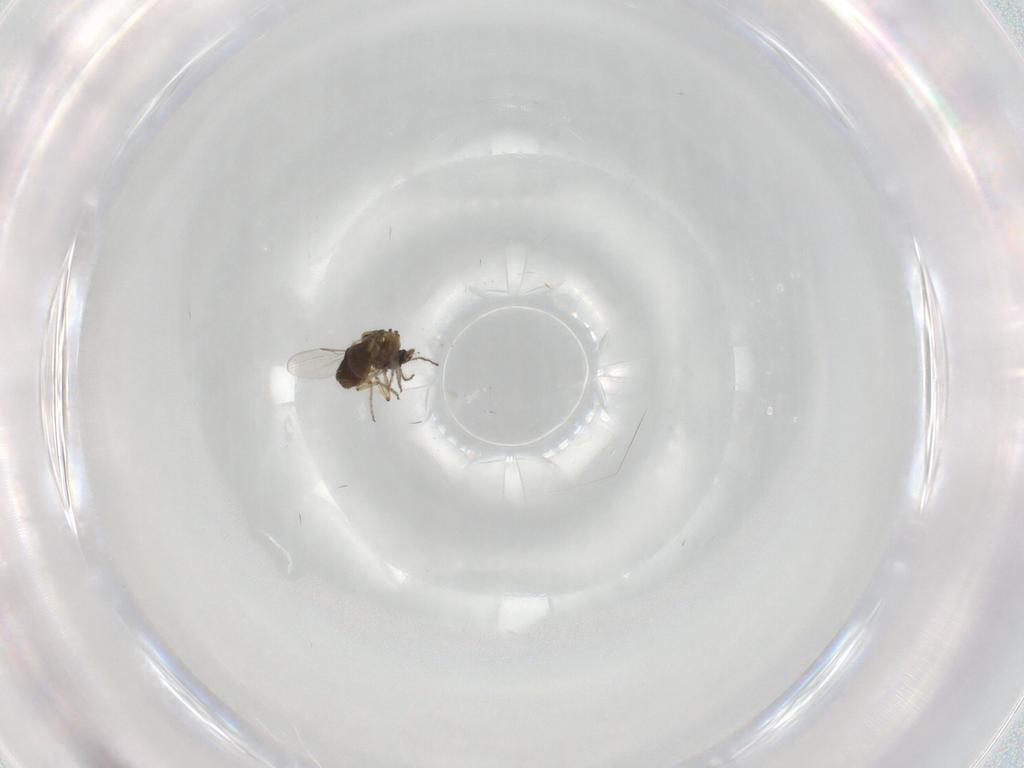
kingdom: Animalia
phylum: Arthropoda
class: Insecta
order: Diptera
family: Ceratopogonidae
